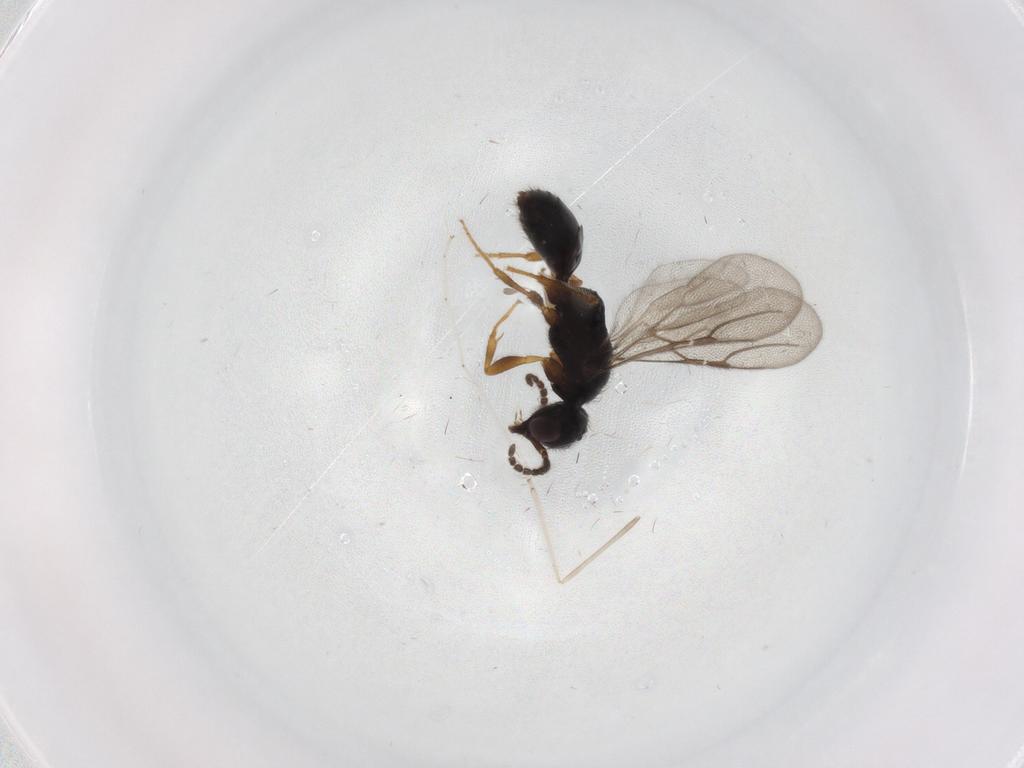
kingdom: Animalia
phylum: Arthropoda
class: Insecta
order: Hymenoptera
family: Bethylidae
